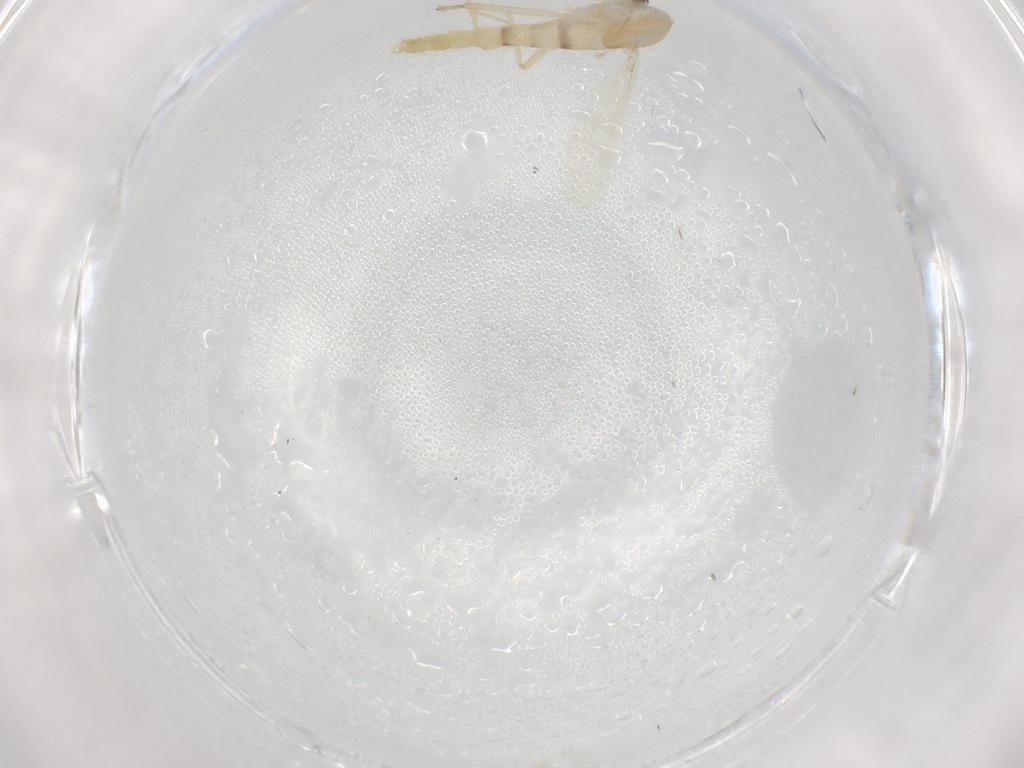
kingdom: Animalia
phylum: Arthropoda
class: Insecta
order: Diptera
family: Chironomidae
